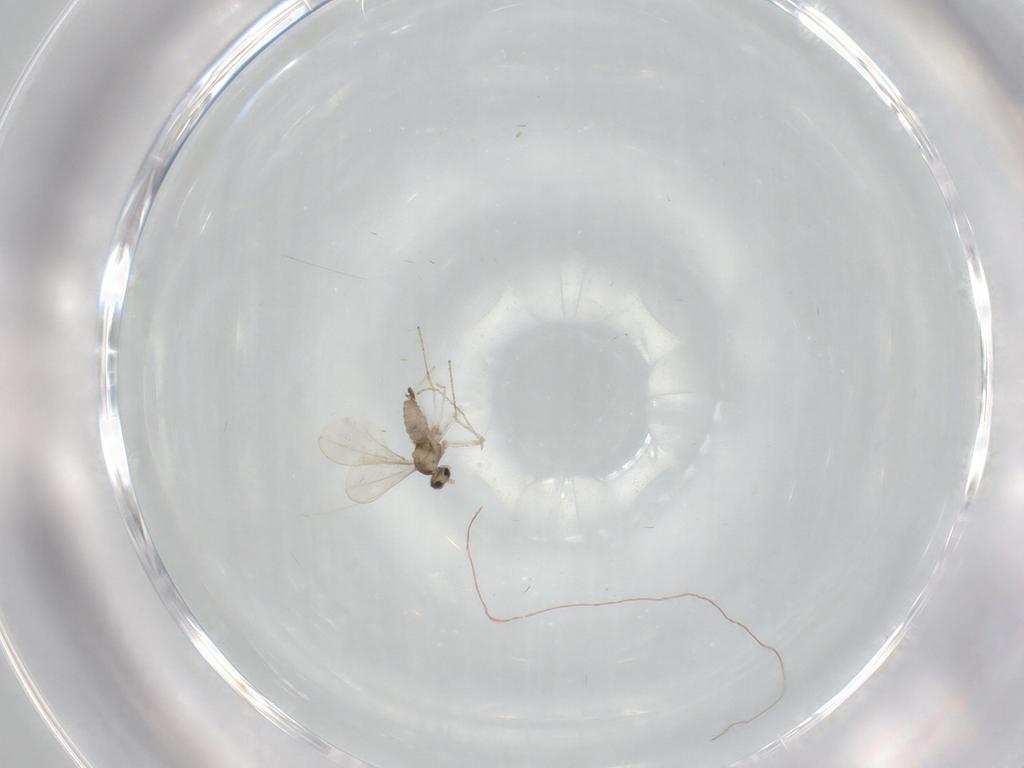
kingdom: Animalia
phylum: Arthropoda
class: Insecta
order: Diptera
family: Cecidomyiidae
